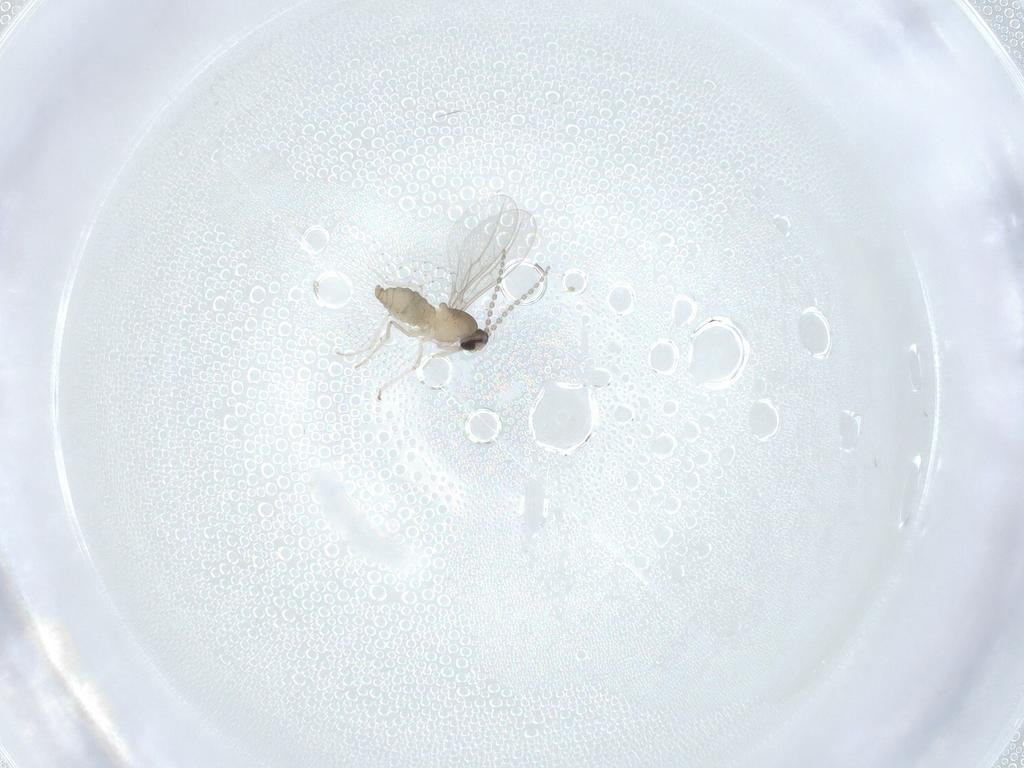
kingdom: Animalia
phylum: Arthropoda
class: Insecta
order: Diptera
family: Cecidomyiidae
